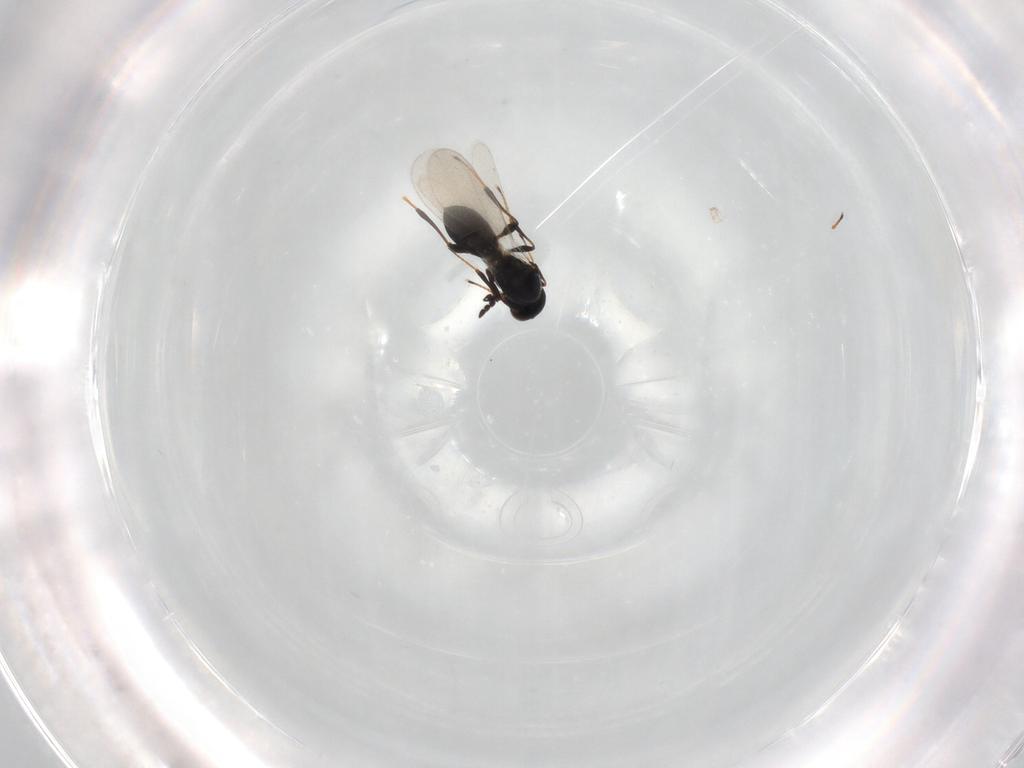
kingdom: Animalia
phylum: Arthropoda
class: Insecta
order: Hymenoptera
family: Platygastridae
